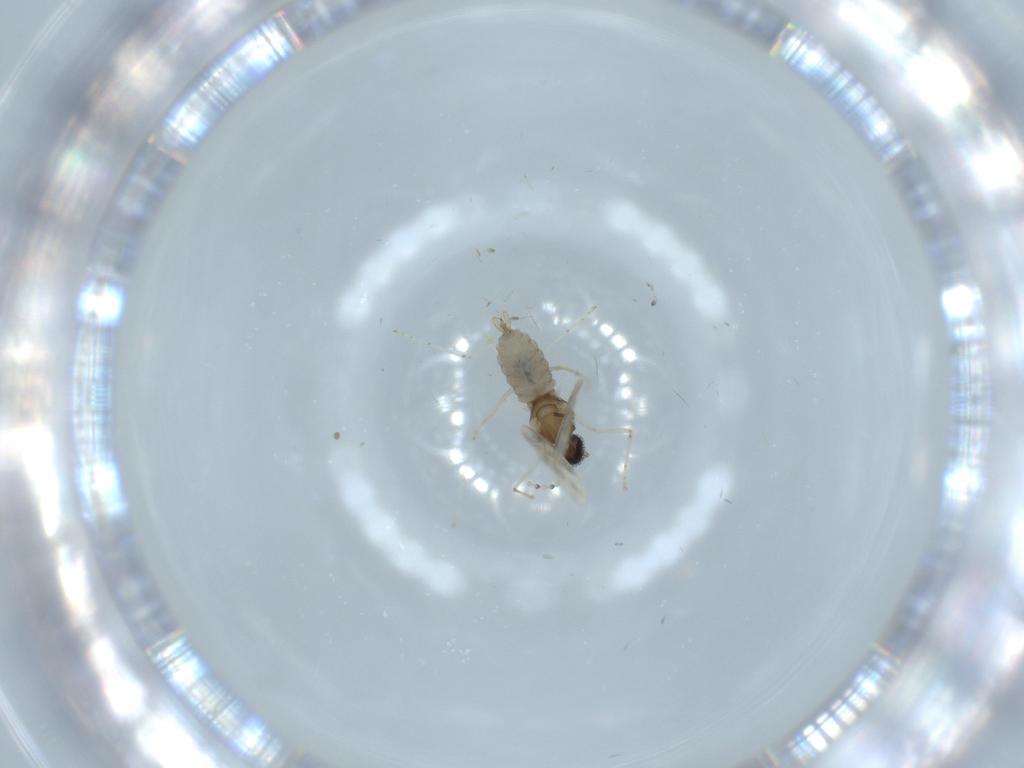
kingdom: Animalia
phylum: Arthropoda
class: Insecta
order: Diptera
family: Cecidomyiidae
